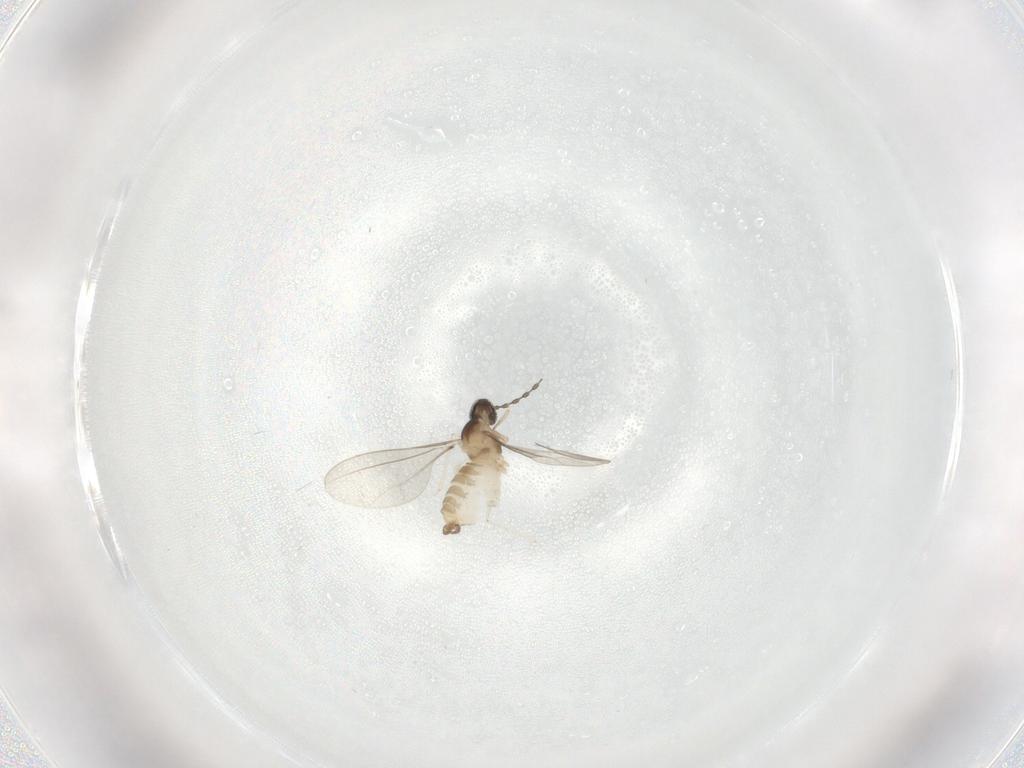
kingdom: Animalia
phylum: Arthropoda
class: Insecta
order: Diptera
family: Cecidomyiidae
